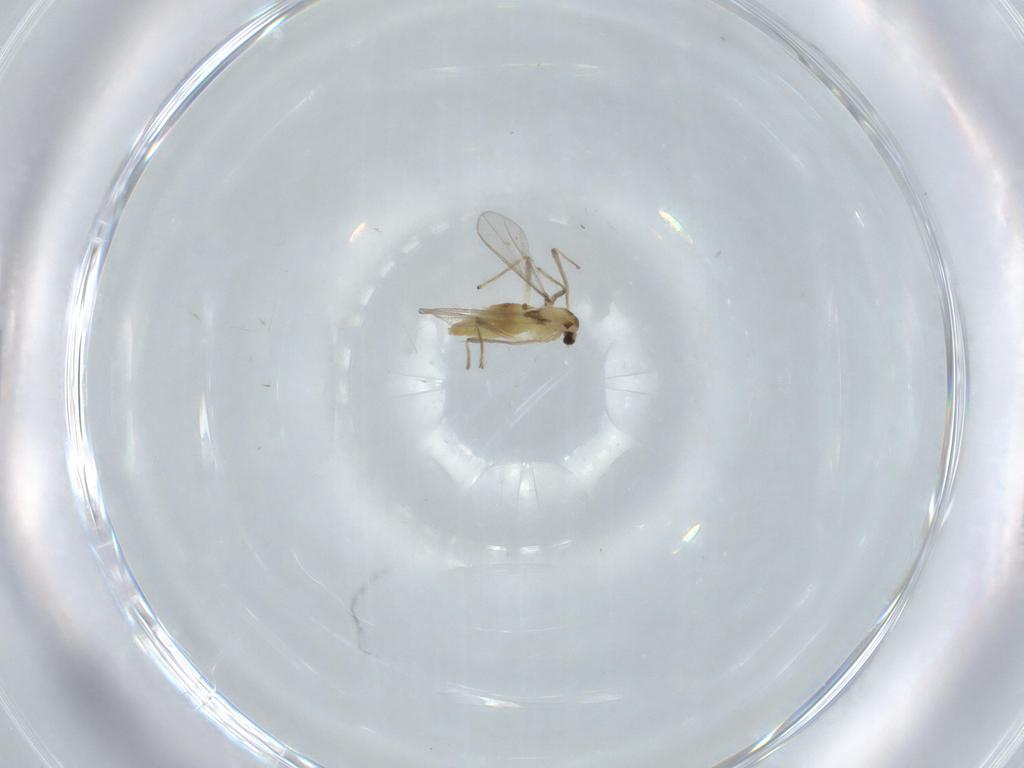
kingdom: Animalia
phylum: Arthropoda
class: Insecta
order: Diptera
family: Chironomidae
